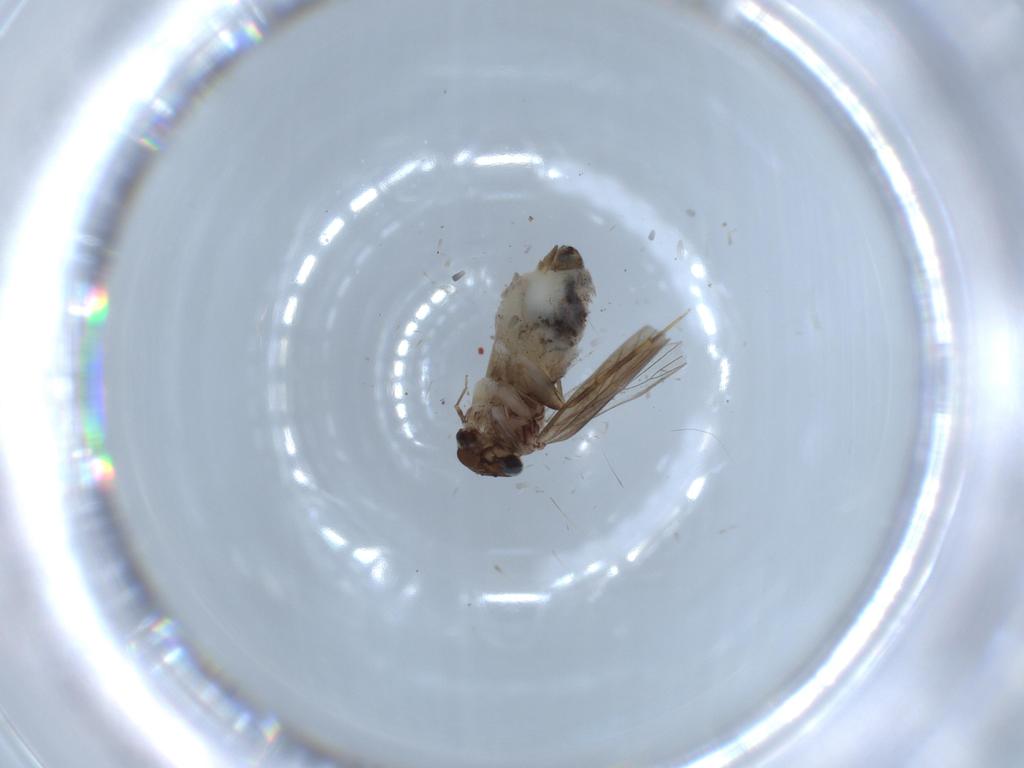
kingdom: Animalia
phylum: Arthropoda
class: Insecta
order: Psocodea
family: Lepidopsocidae
